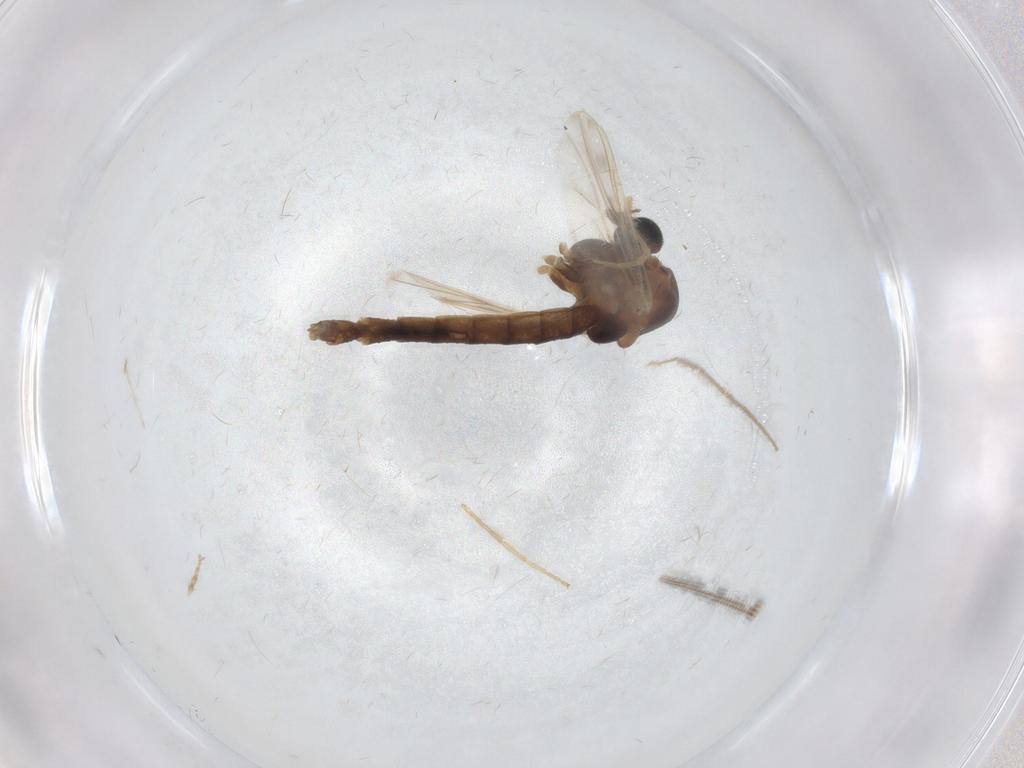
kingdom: Animalia
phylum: Arthropoda
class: Insecta
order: Diptera
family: Chironomidae
